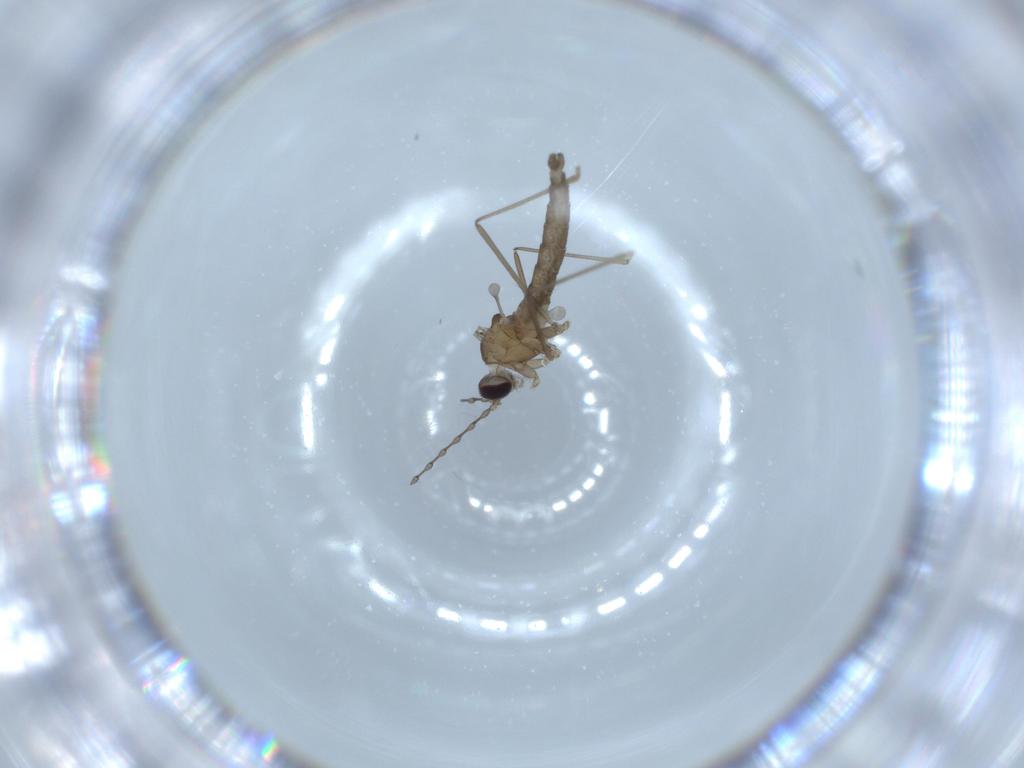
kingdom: Animalia
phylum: Arthropoda
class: Insecta
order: Diptera
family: Cecidomyiidae
